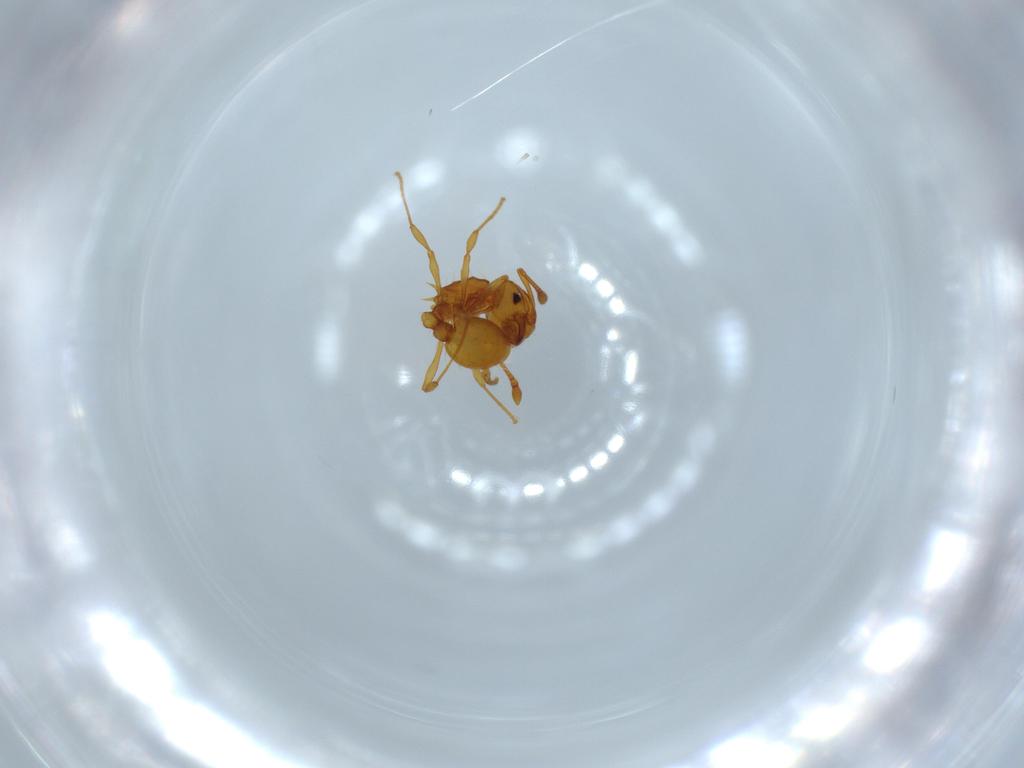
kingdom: Animalia
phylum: Arthropoda
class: Insecta
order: Hymenoptera
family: Formicidae
